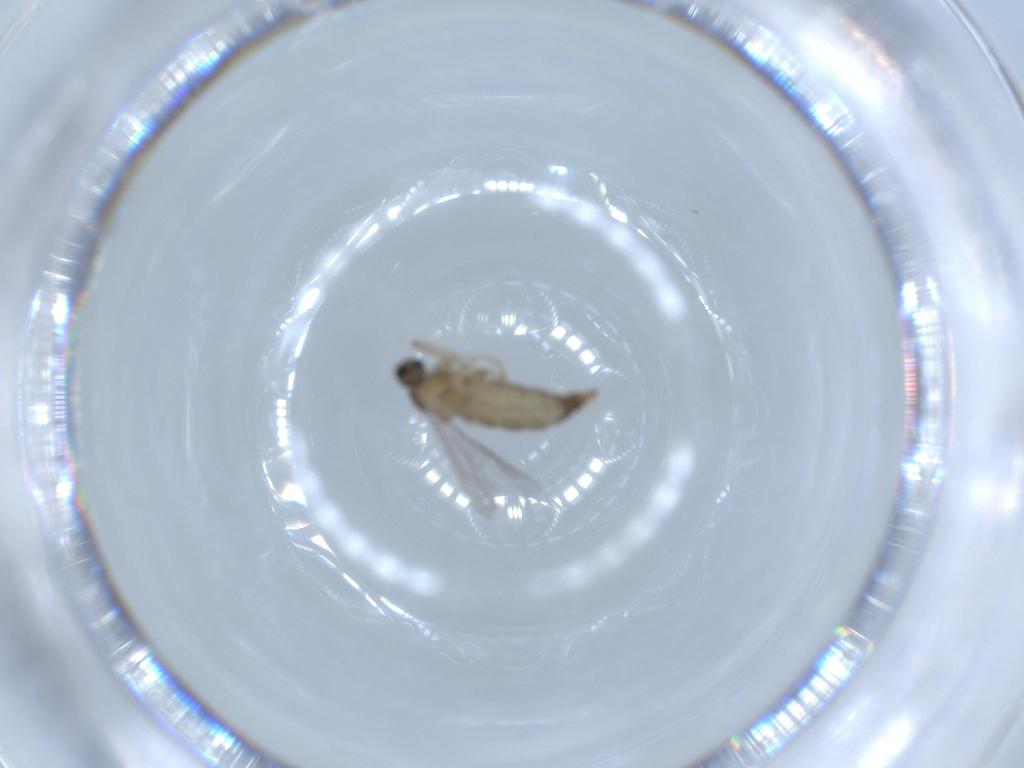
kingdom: Animalia
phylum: Arthropoda
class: Insecta
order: Diptera
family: Cecidomyiidae
